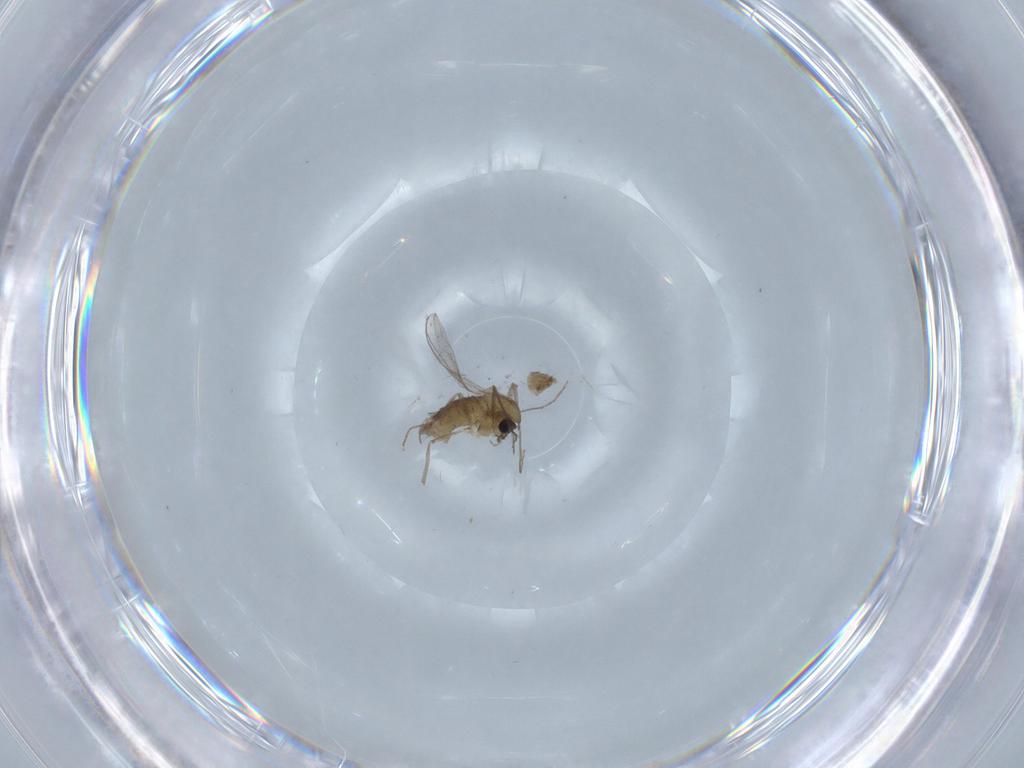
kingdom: Animalia
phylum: Arthropoda
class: Insecta
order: Diptera
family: Chironomidae
